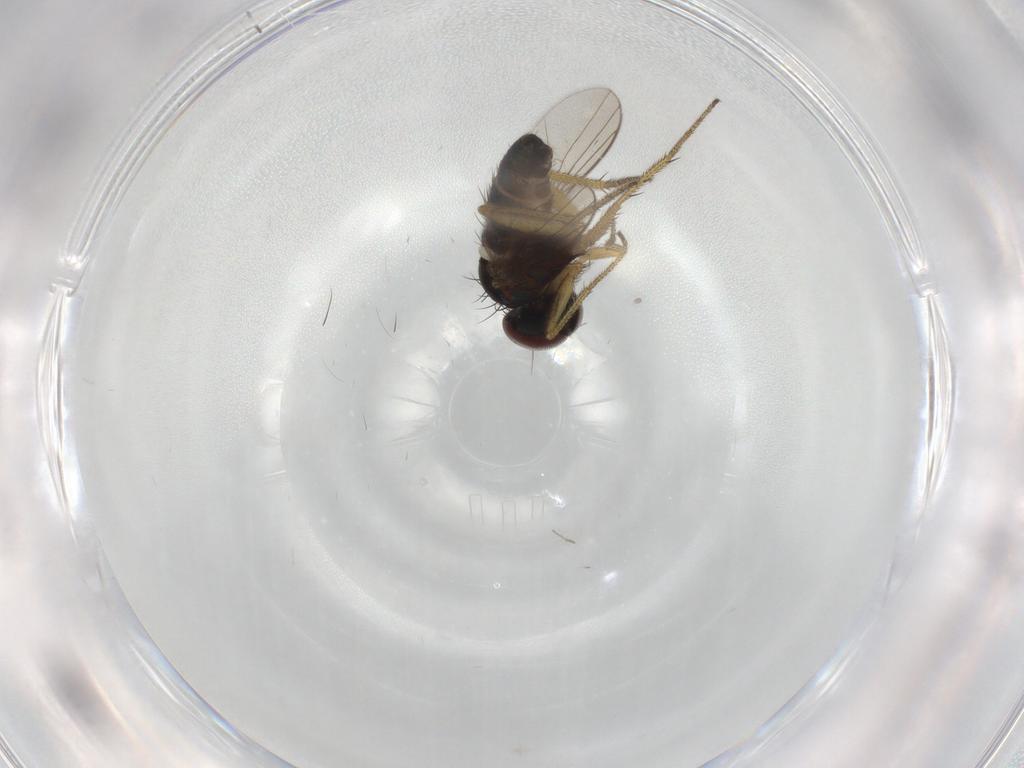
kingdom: Animalia
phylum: Arthropoda
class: Insecta
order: Diptera
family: Chironomidae
